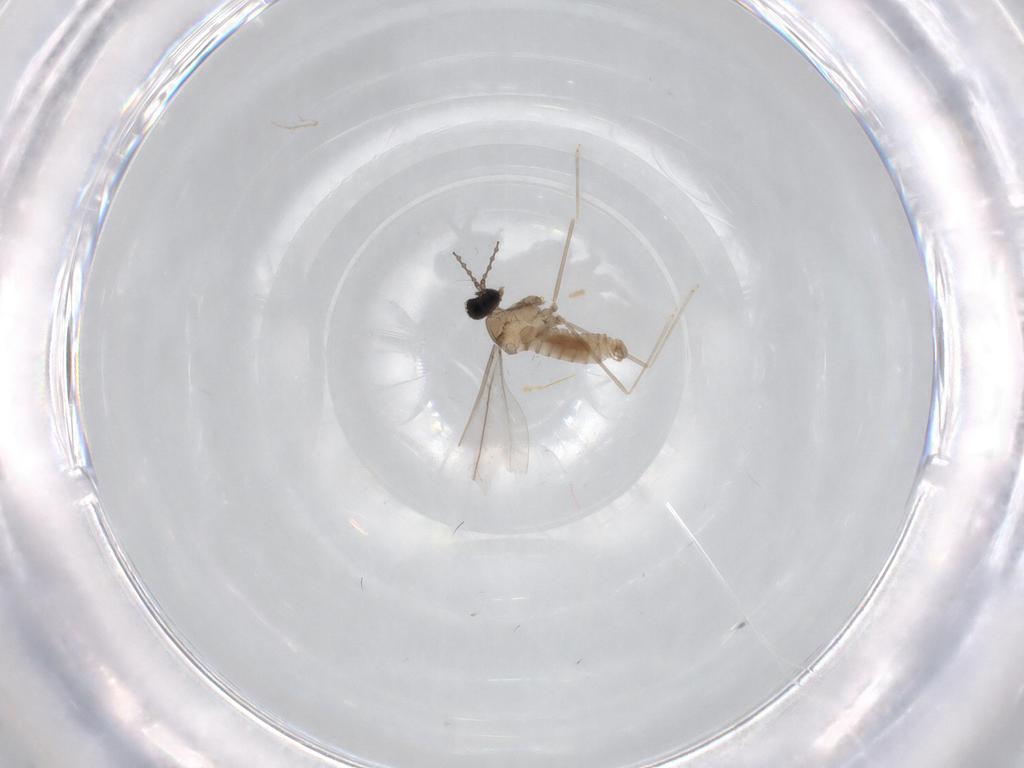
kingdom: Animalia
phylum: Arthropoda
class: Insecta
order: Diptera
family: Cecidomyiidae
